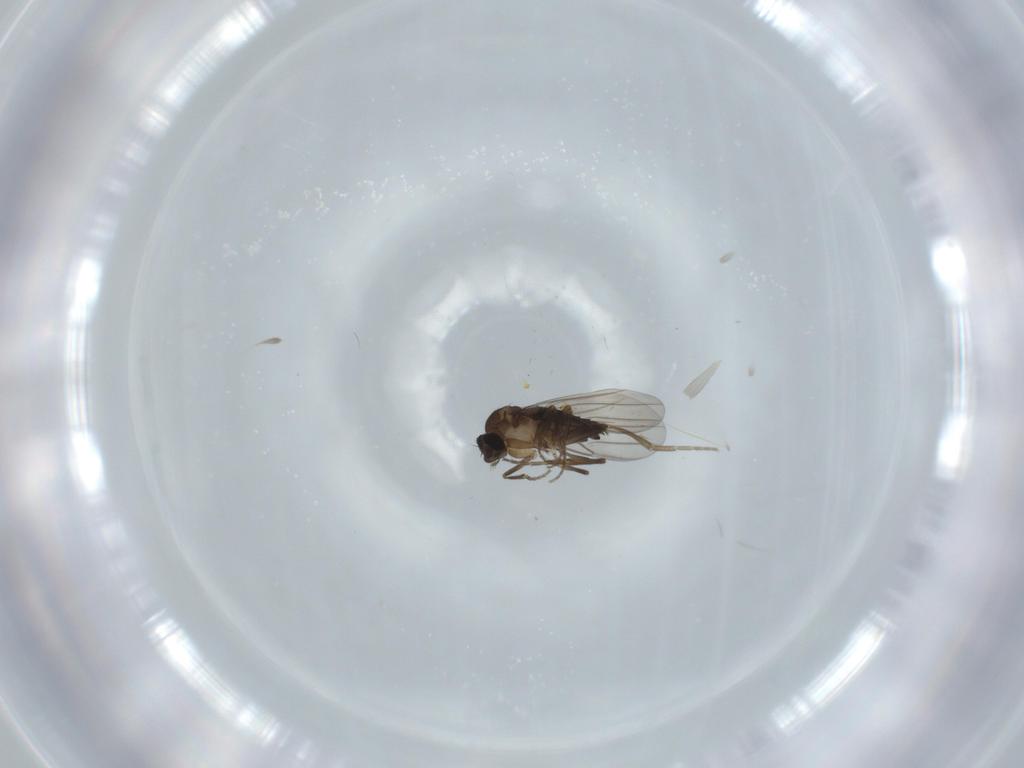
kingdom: Animalia
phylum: Arthropoda
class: Insecta
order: Diptera
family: Phoridae
